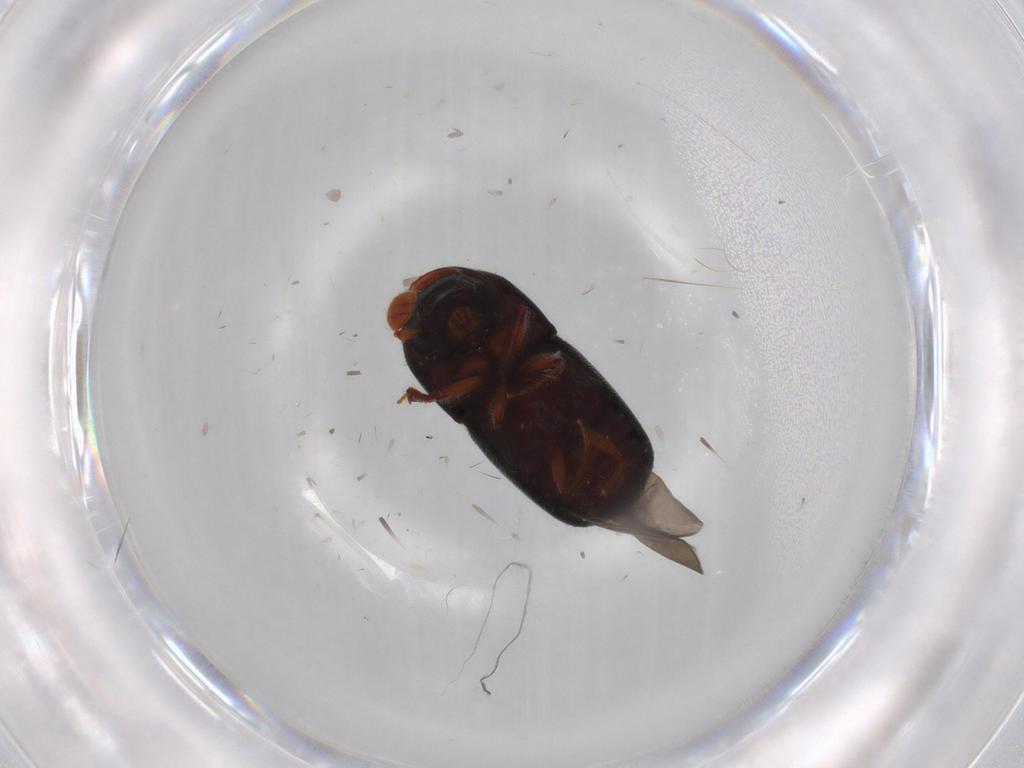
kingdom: Animalia
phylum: Arthropoda
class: Insecta
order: Coleoptera
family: Curculionidae
